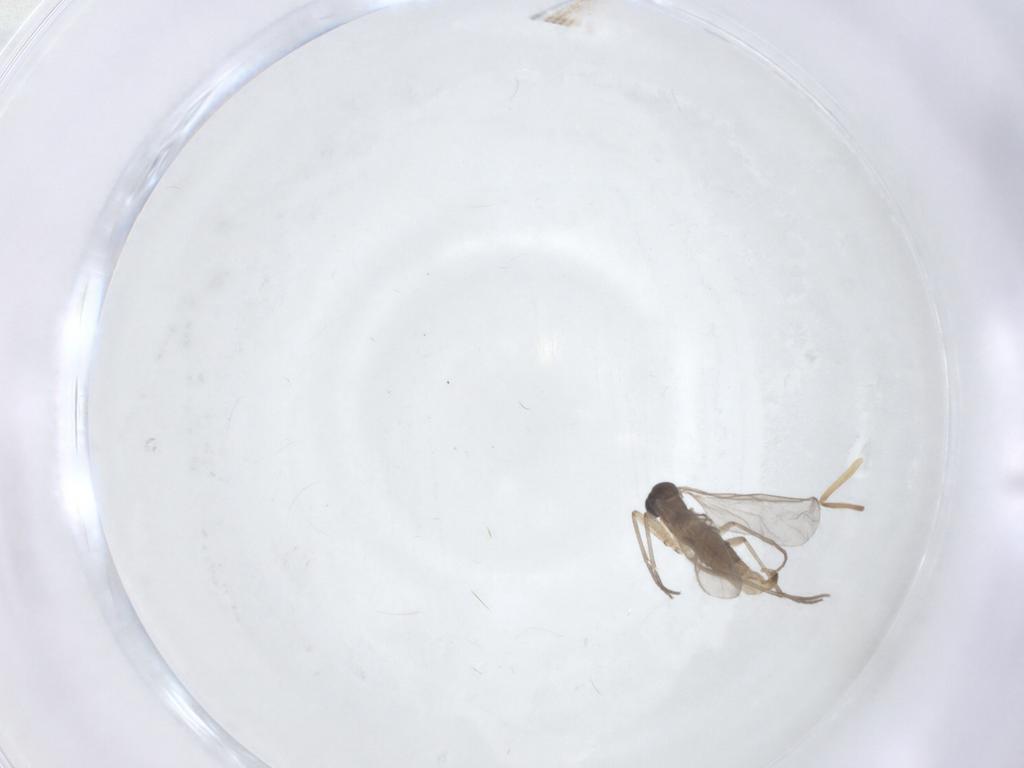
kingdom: Animalia
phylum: Arthropoda
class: Insecta
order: Diptera
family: Chironomidae
